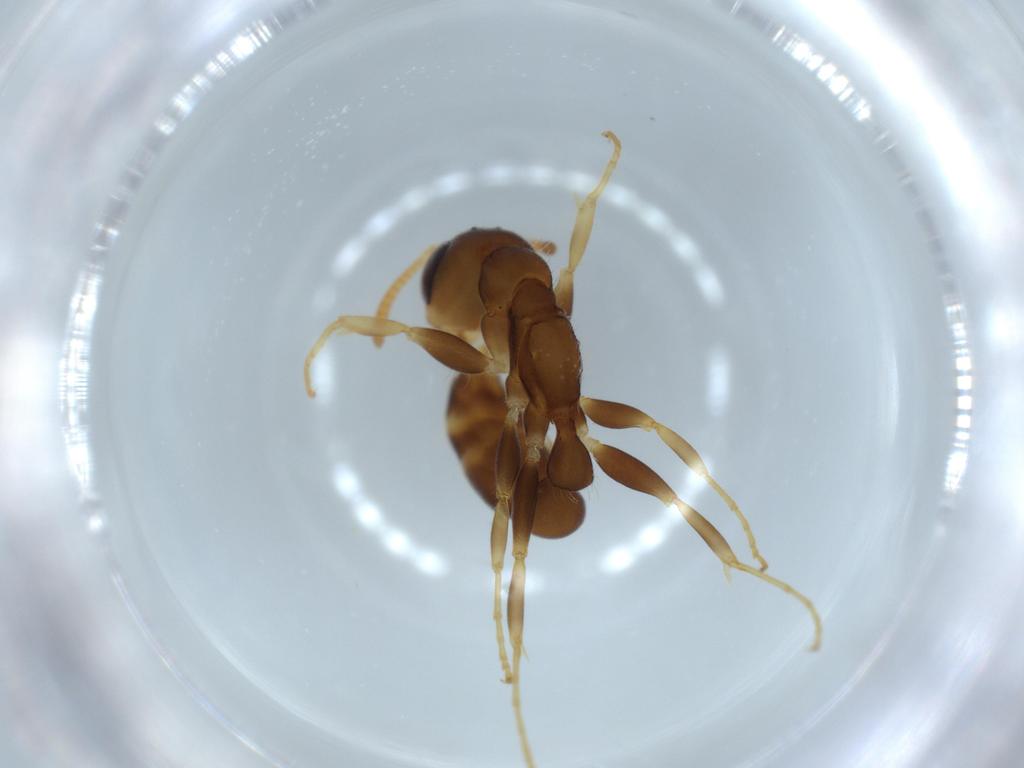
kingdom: Animalia
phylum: Arthropoda
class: Insecta
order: Hymenoptera
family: Formicidae
